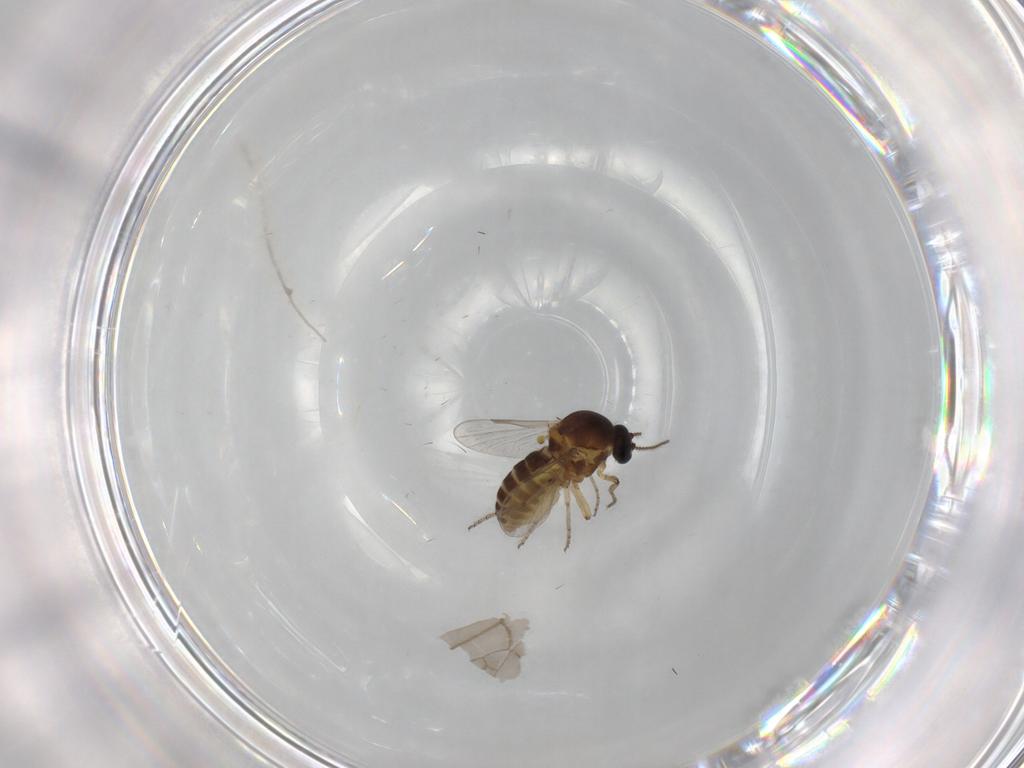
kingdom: Animalia
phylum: Arthropoda
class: Insecta
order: Diptera
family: Ceratopogonidae
